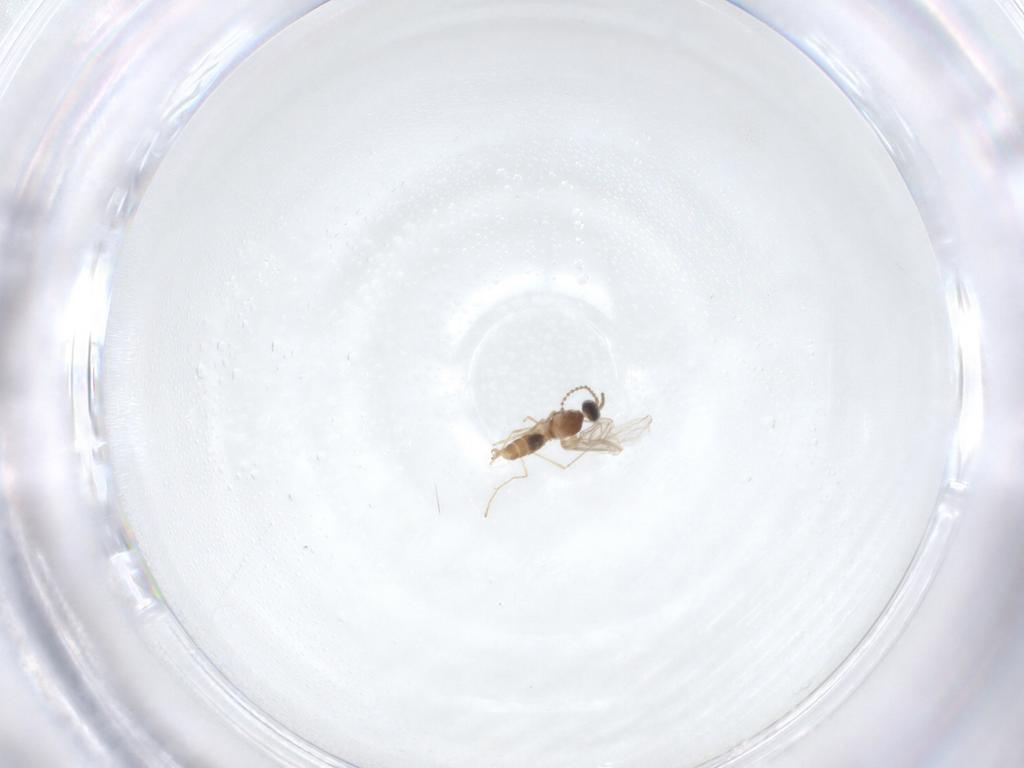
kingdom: Animalia
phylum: Arthropoda
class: Insecta
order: Diptera
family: Cecidomyiidae
